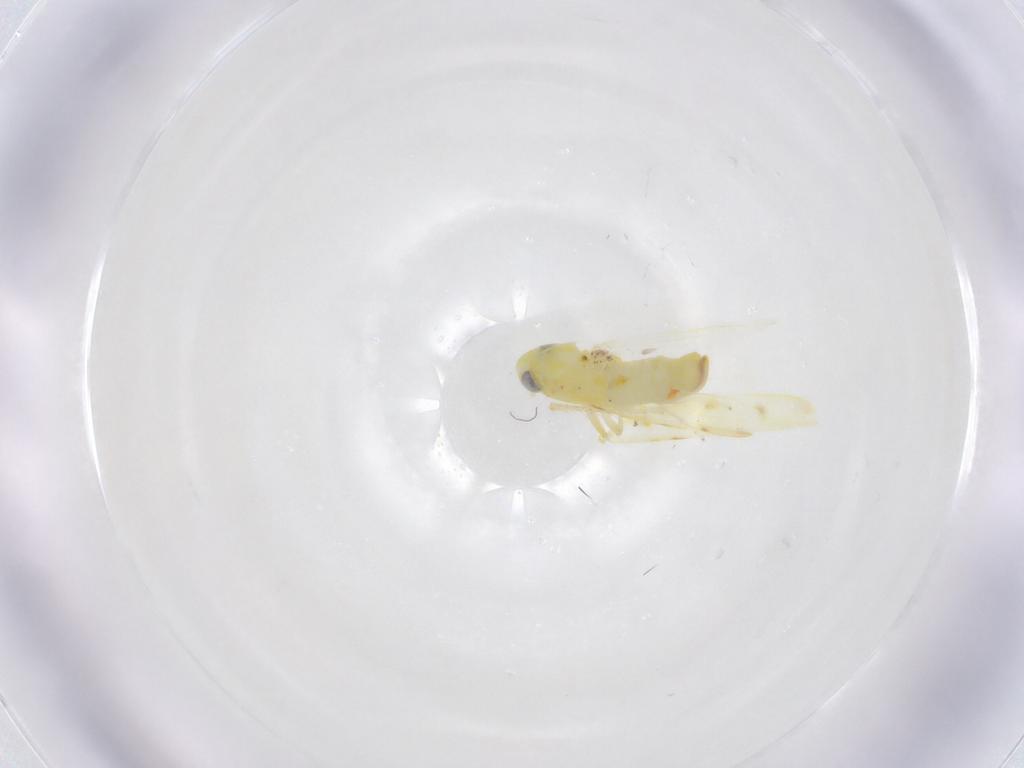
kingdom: Animalia
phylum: Arthropoda
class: Insecta
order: Hemiptera
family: Cicadellidae
